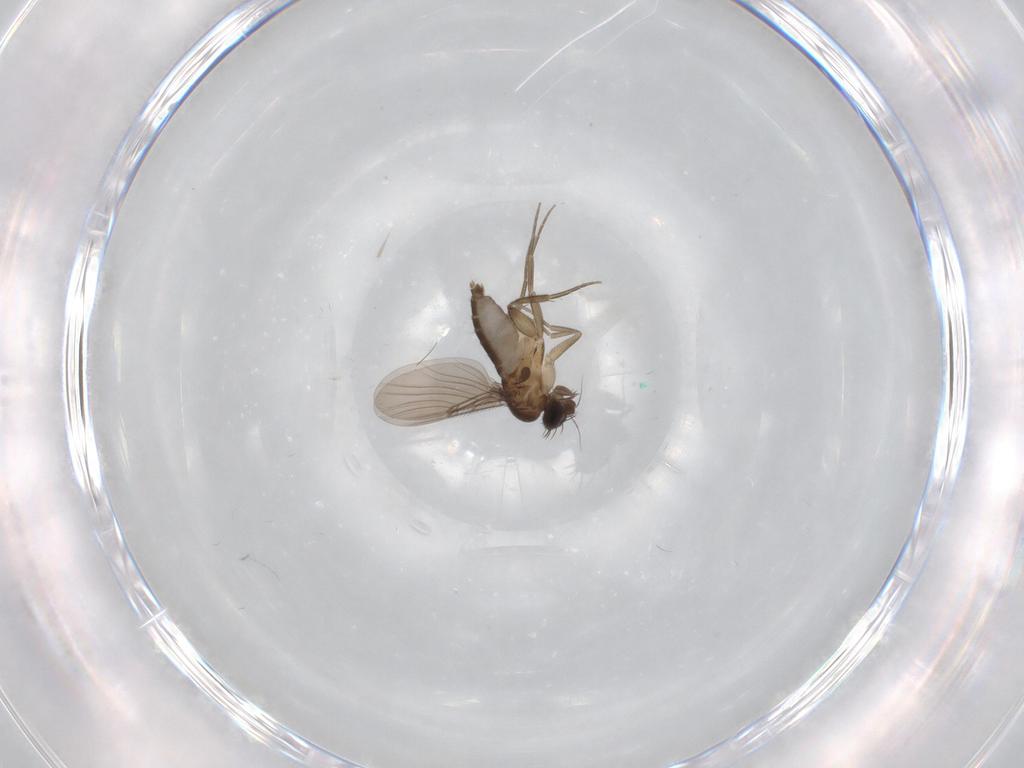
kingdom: Animalia
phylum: Arthropoda
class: Insecta
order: Diptera
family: Phoridae
